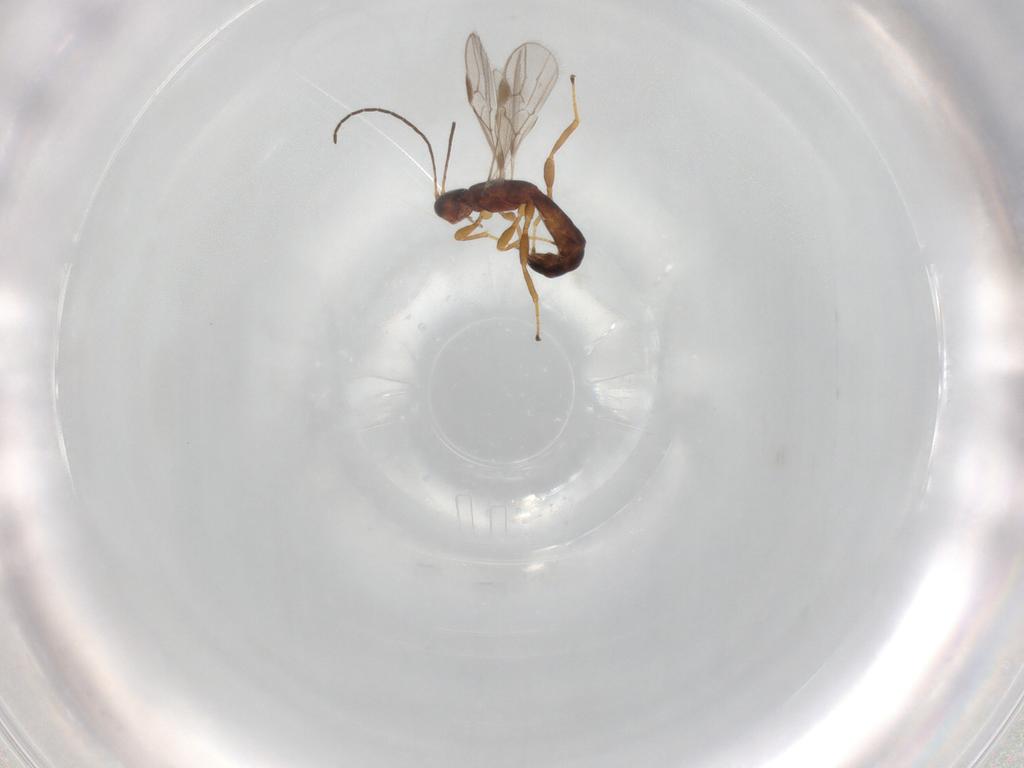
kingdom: Animalia
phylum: Arthropoda
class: Insecta
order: Hymenoptera
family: Braconidae
